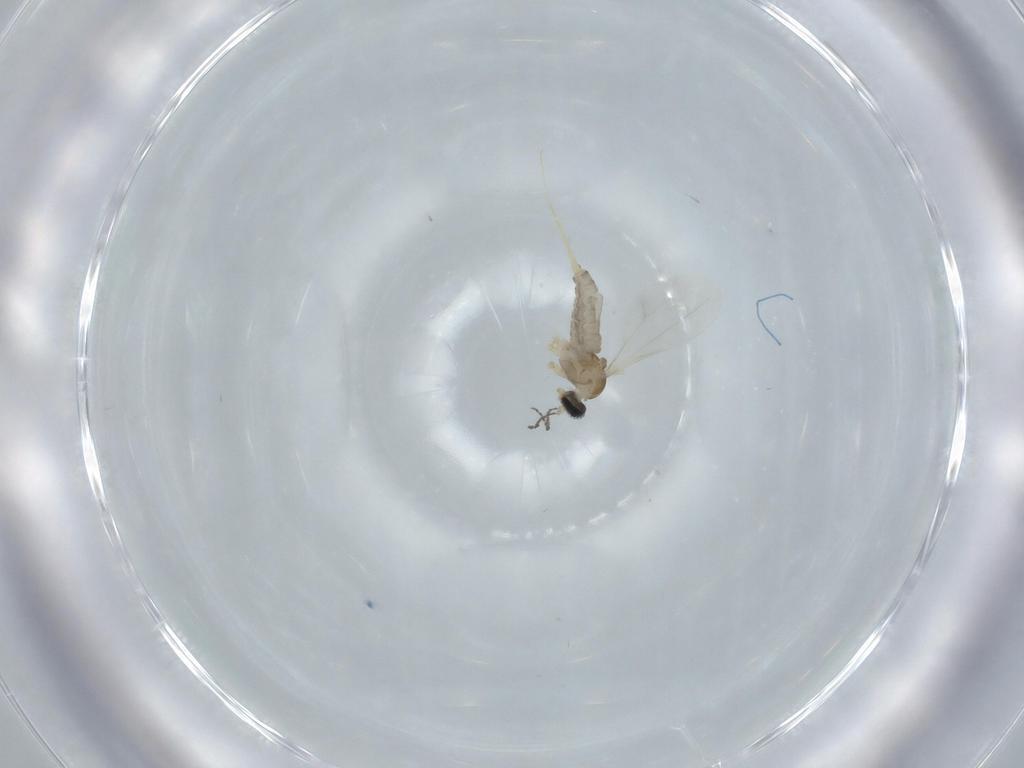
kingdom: Animalia
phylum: Arthropoda
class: Insecta
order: Diptera
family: Cecidomyiidae
